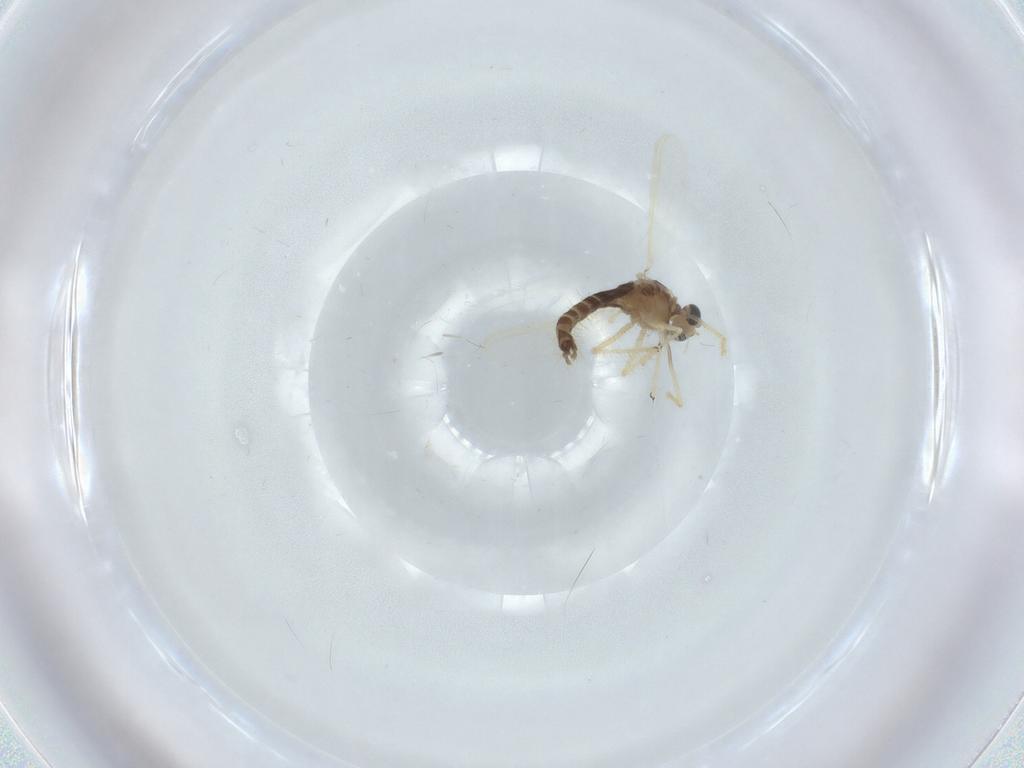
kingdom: Animalia
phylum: Arthropoda
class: Insecta
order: Diptera
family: Chironomidae
